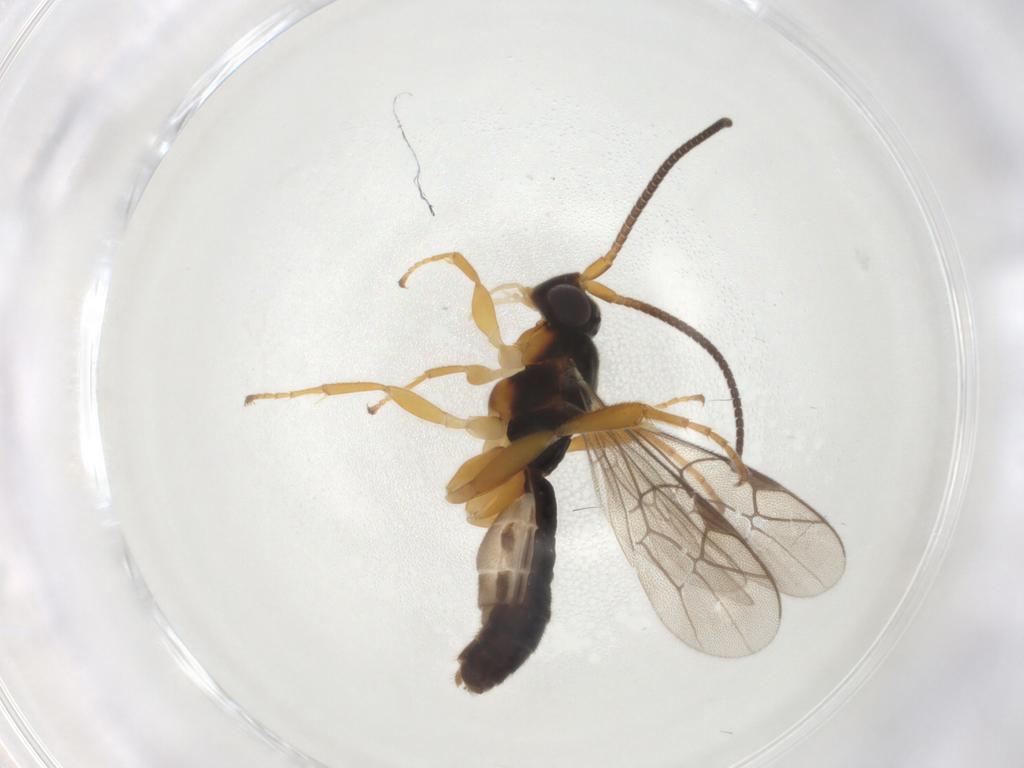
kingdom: Animalia
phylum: Arthropoda
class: Insecta
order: Hymenoptera
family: Ichneumonidae
